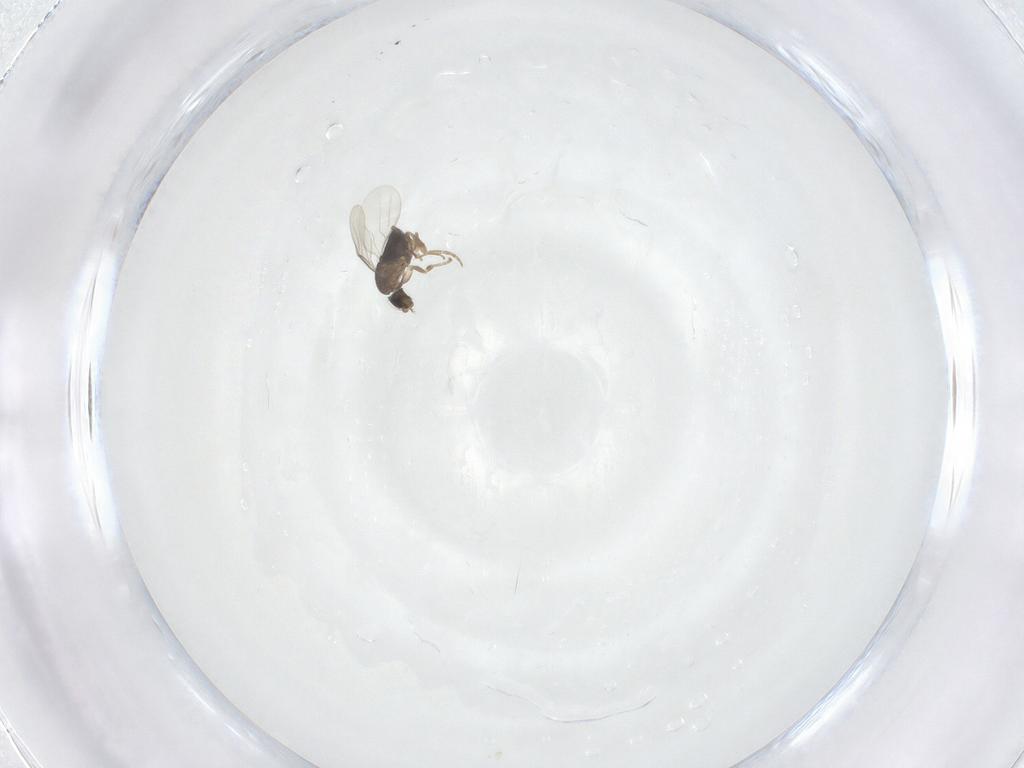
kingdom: Animalia
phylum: Arthropoda
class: Insecta
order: Diptera
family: Phoridae
